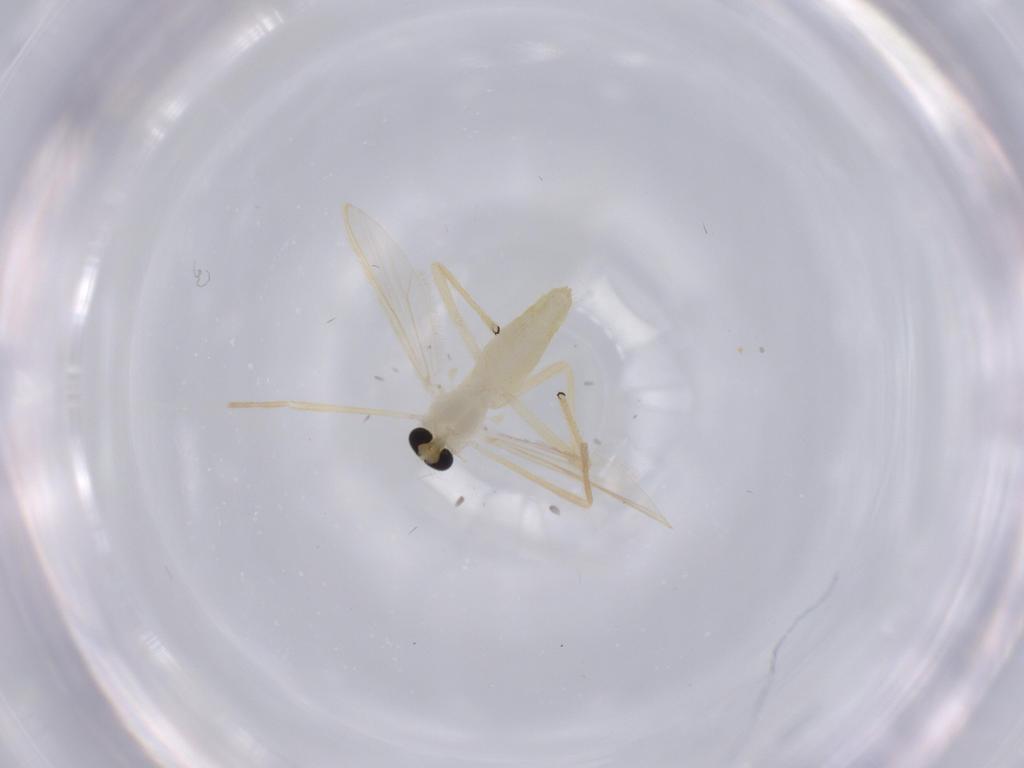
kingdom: Animalia
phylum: Arthropoda
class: Insecta
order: Diptera
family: Chironomidae
